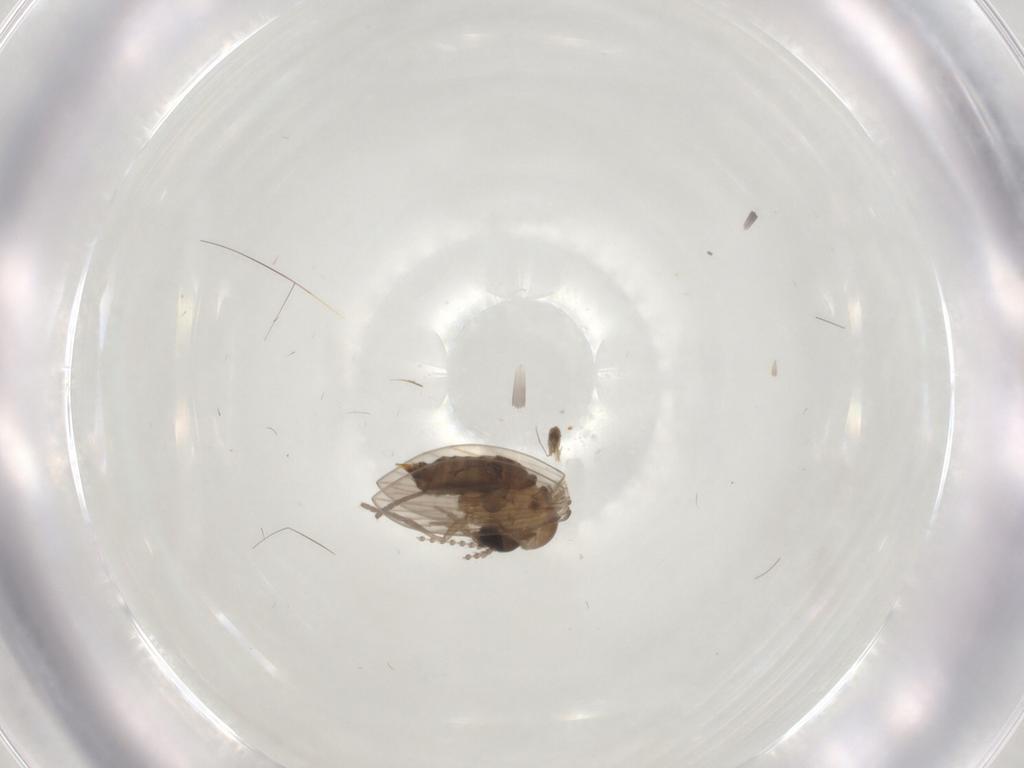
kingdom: Animalia
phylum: Arthropoda
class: Insecta
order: Diptera
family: Psychodidae
